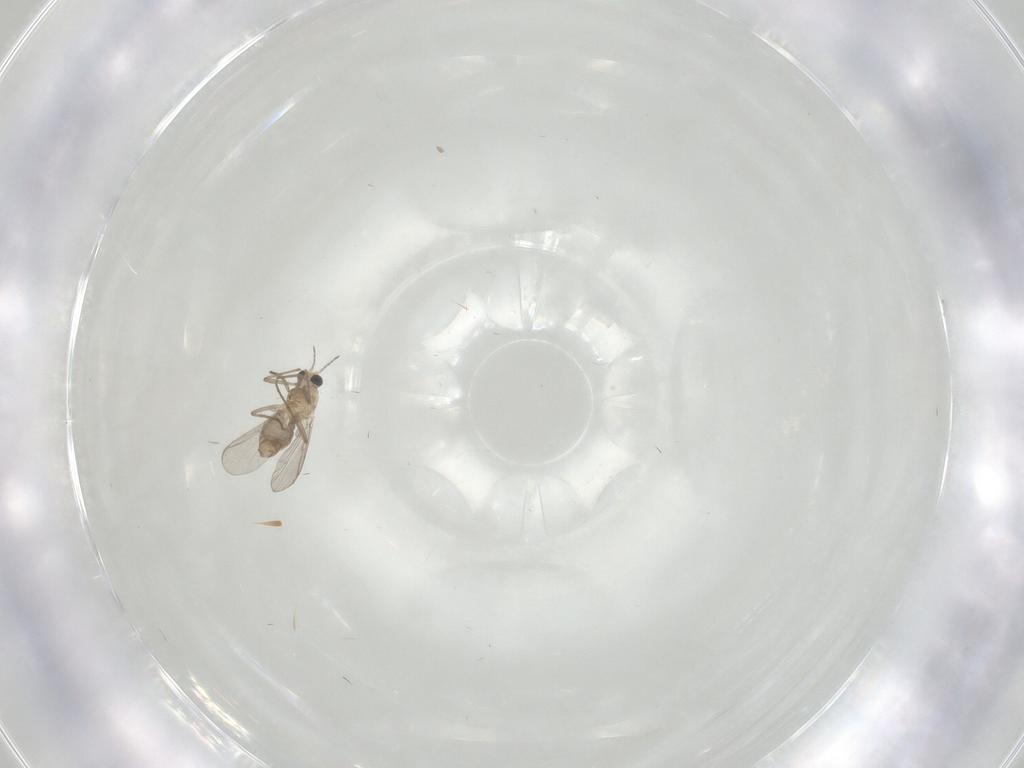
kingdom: Animalia
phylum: Arthropoda
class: Insecta
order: Diptera
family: Chironomidae
